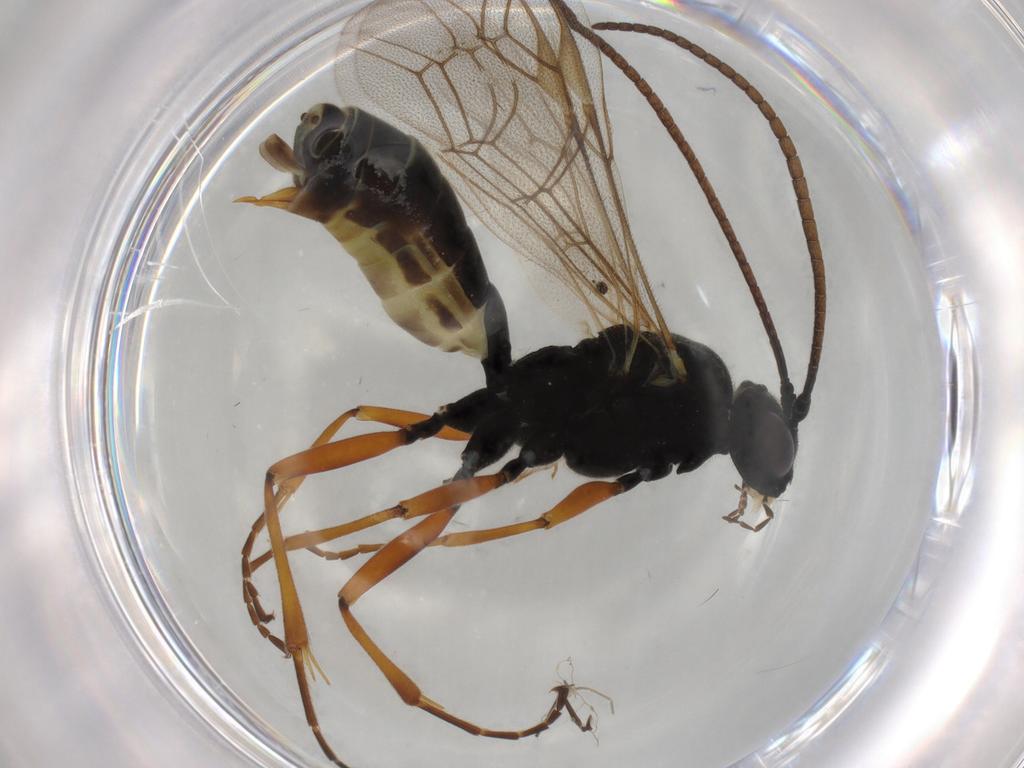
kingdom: Animalia
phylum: Arthropoda
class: Insecta
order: Hymenoptera
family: Ichneumonidae
